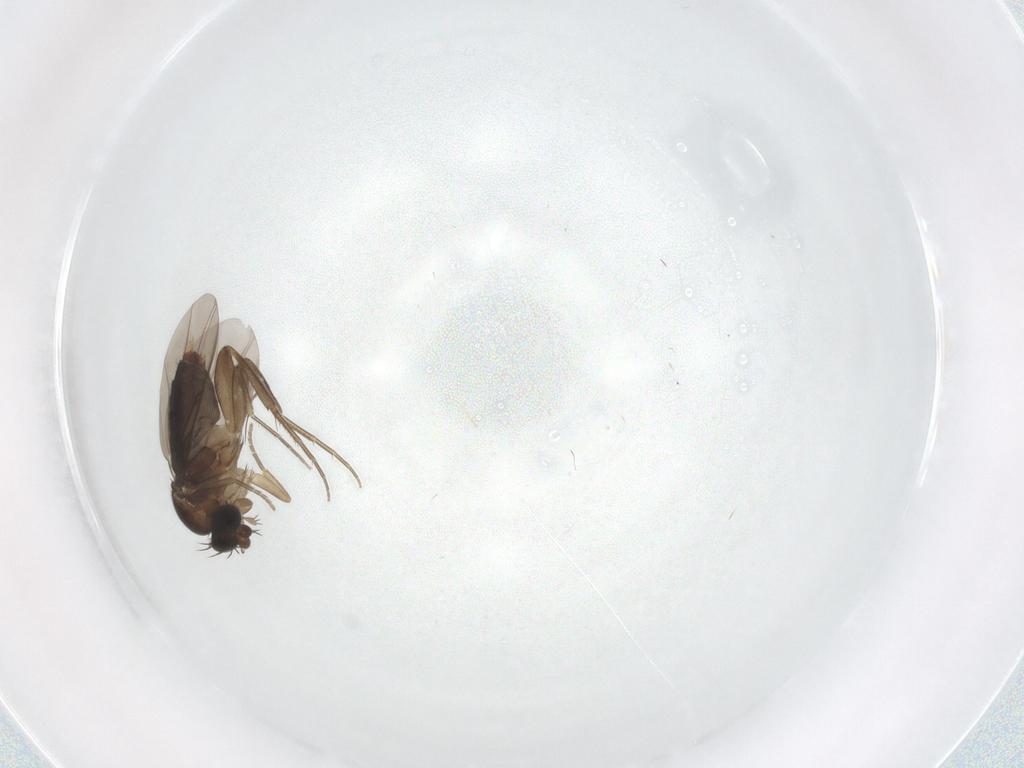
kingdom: Animalia
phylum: Arthropoda
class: Insecta
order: Diptera
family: Phoridae
